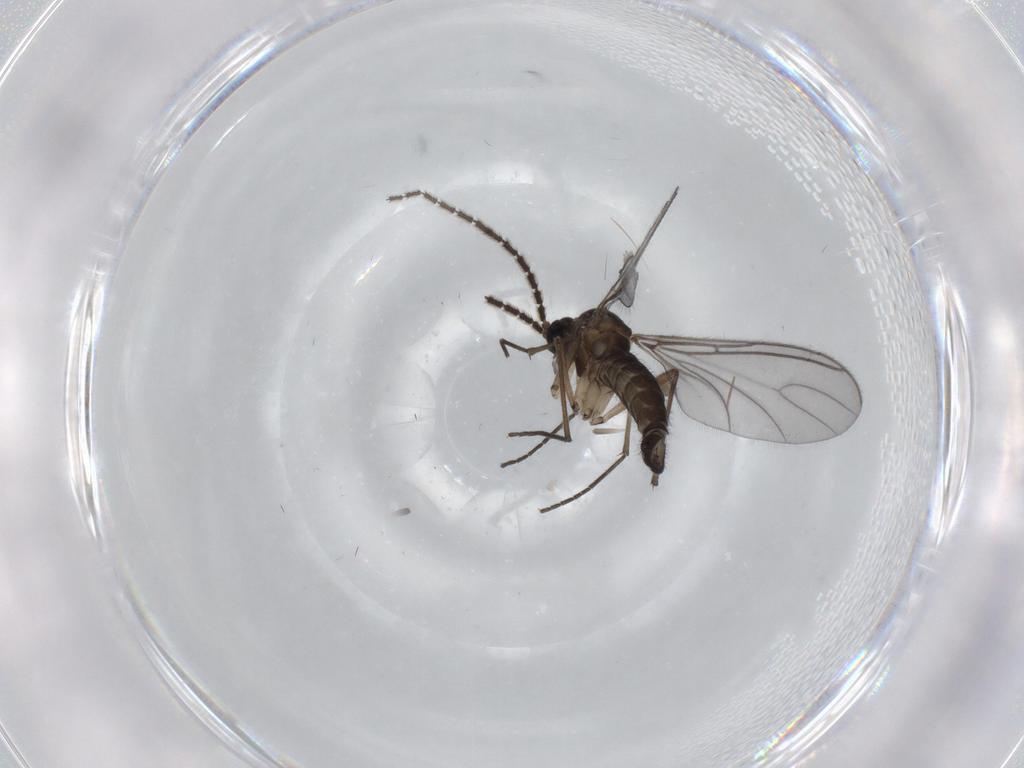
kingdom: Animalia
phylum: Arthropoda
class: Insecta
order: Diptera
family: Sciaridae
